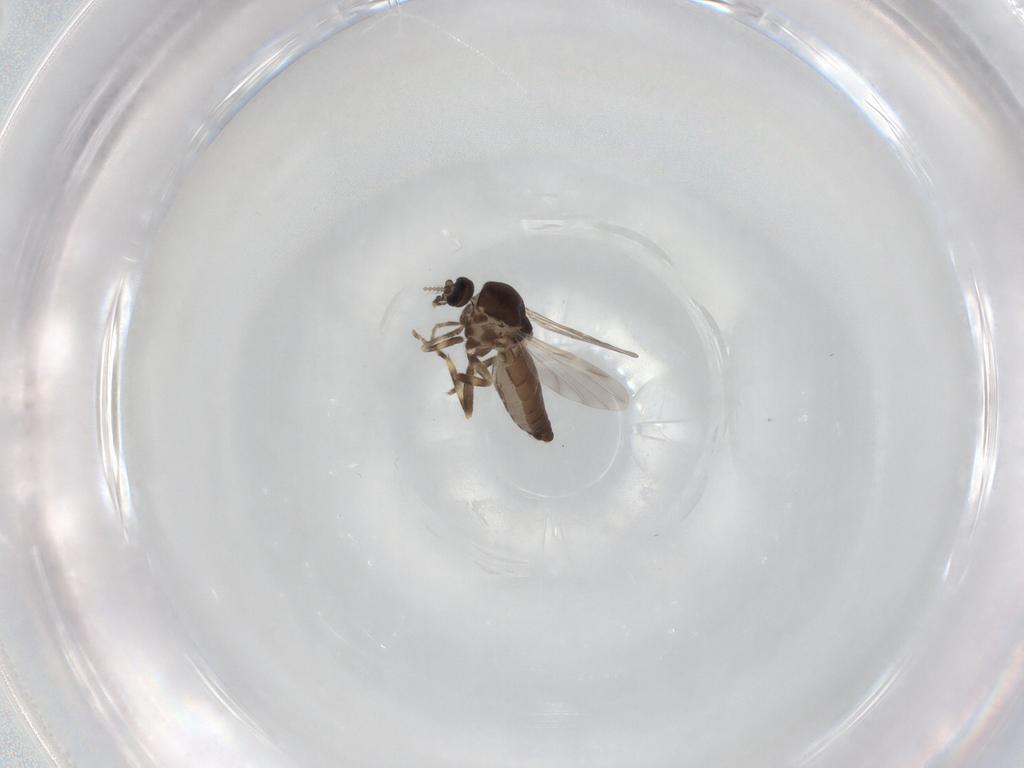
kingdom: Animalia
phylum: Arthropoda
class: Insecta
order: Diptera
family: Ceratopogonidae
